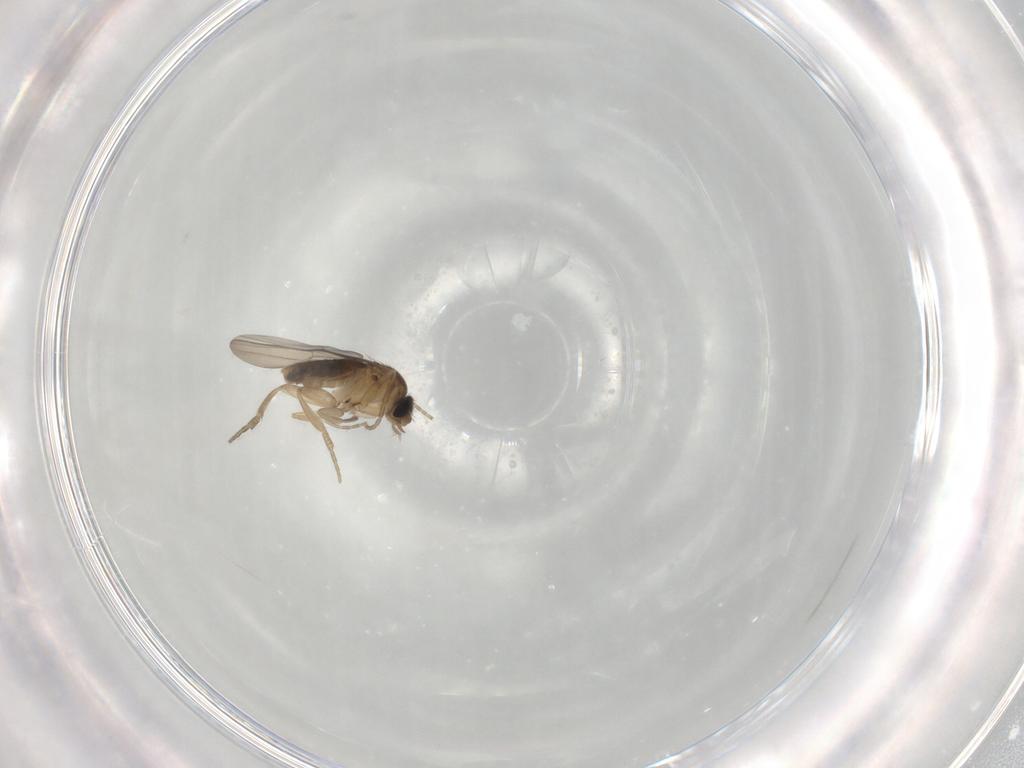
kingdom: Animalia
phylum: Arthropoda
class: Insecta
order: Diptera
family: Phoridae
